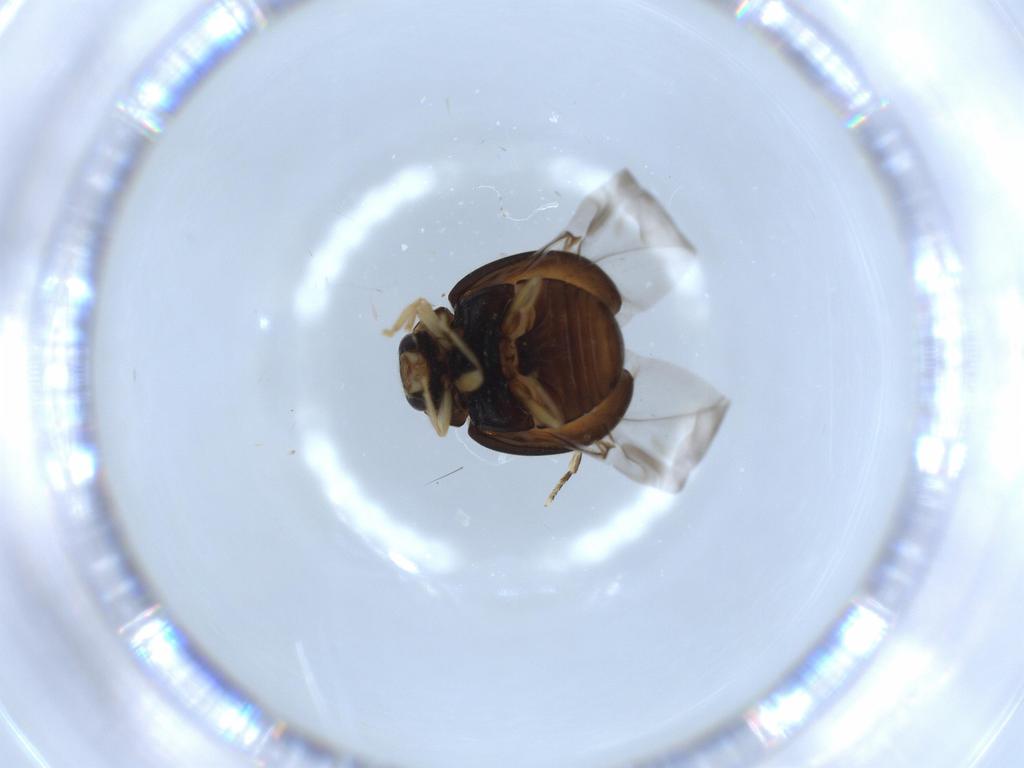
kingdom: Animalia
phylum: Arthropoda
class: Insecta
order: Coleoptera
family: Coccinellidae
